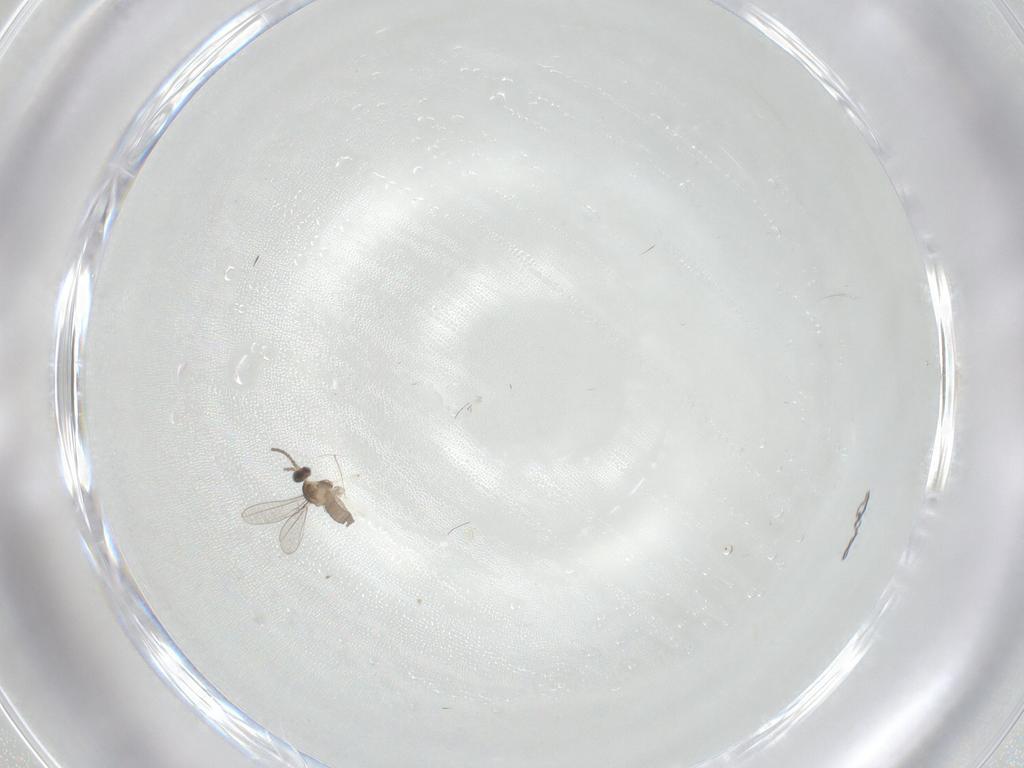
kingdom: Animalia
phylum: Arthropoda
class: Insecta
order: Diptera
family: Cecidomyiidae
